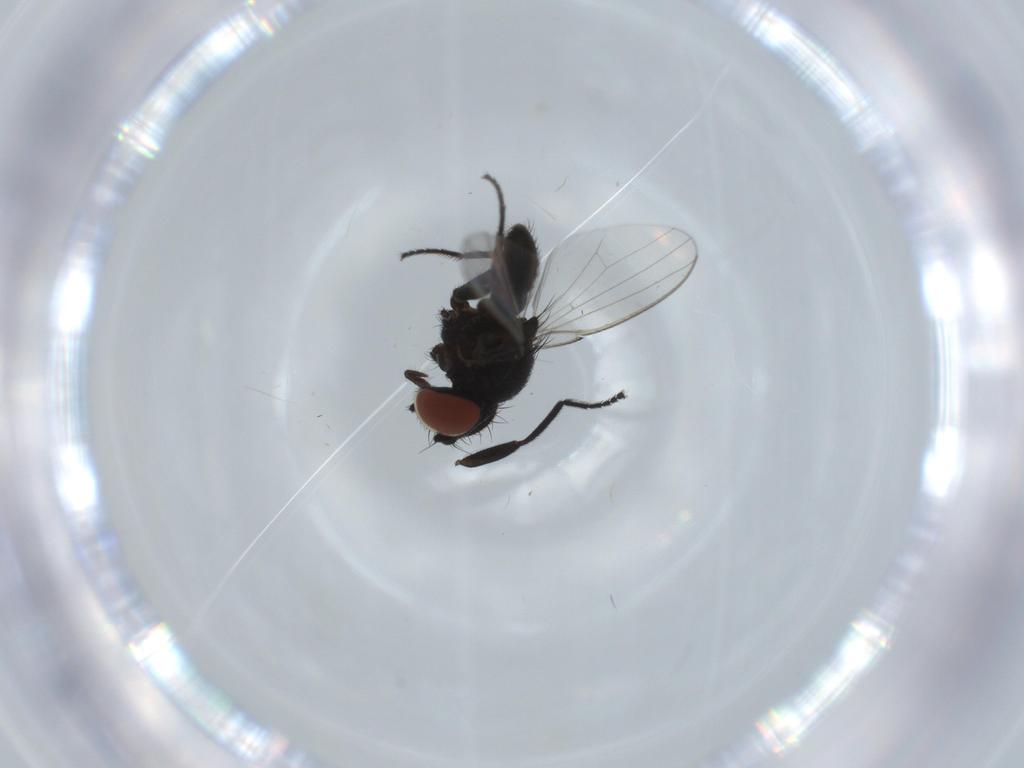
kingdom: Animalia
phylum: Arthropoda
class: Insecta
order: Diptera
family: Milichiidae
